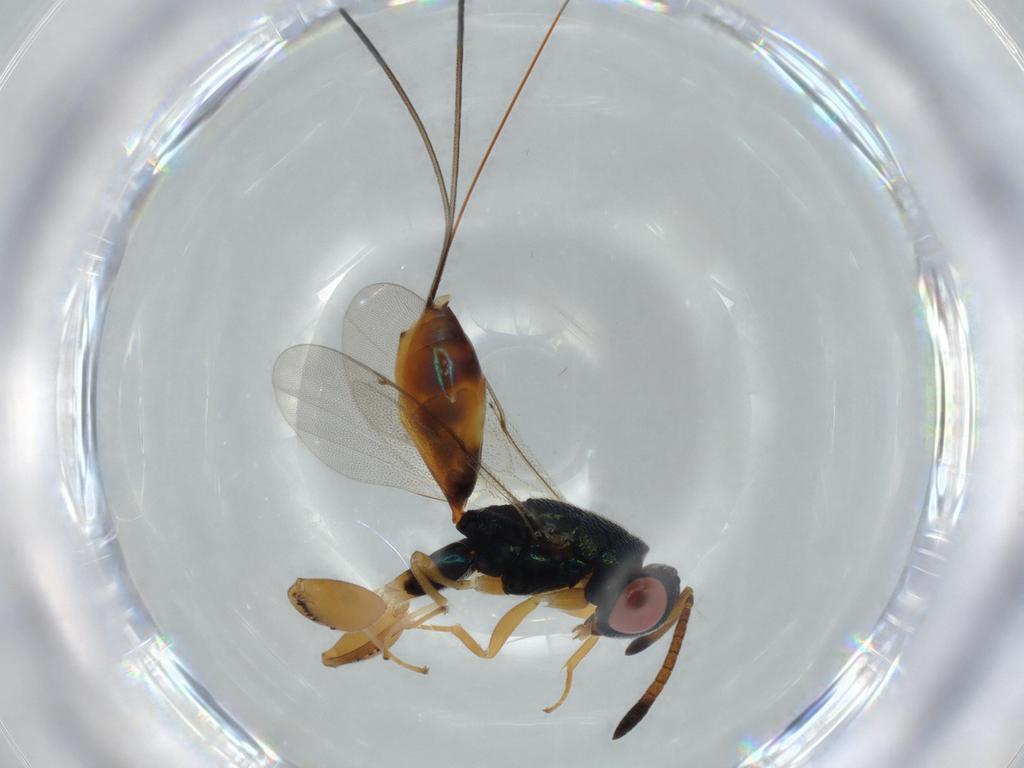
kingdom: Animalia
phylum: Arthropoda
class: Insecta
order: Hymenoptera
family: Torymidae
